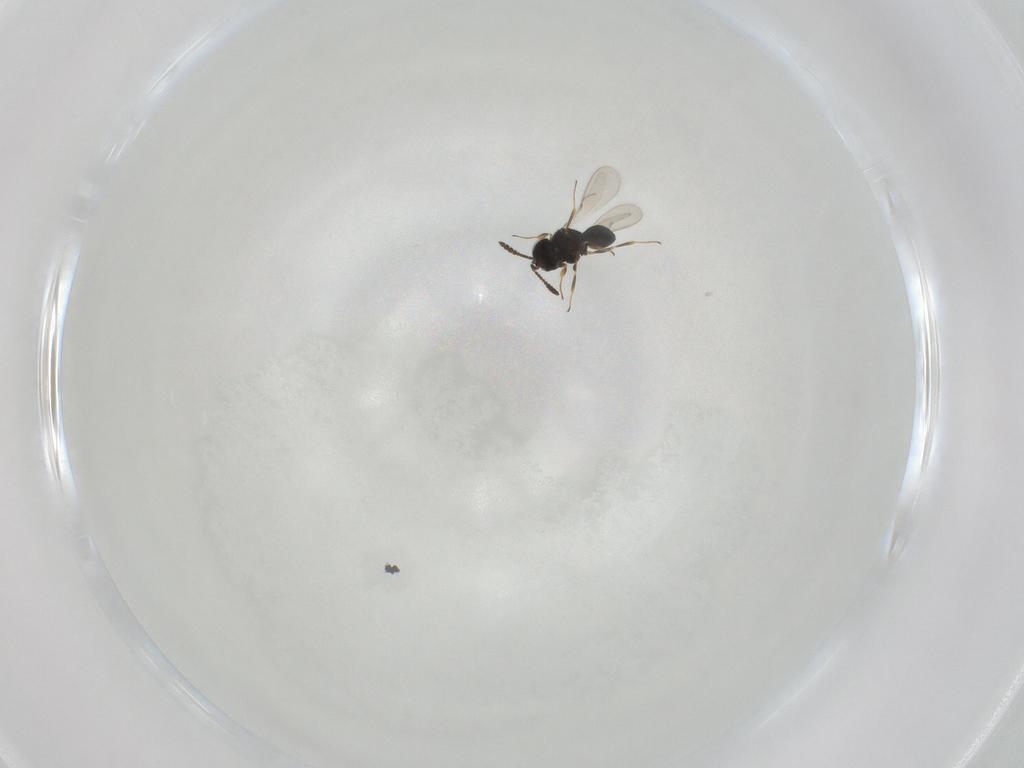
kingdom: Animalia
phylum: Arthropoda
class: Insecta
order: Hymenoptera
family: Scelionidae
